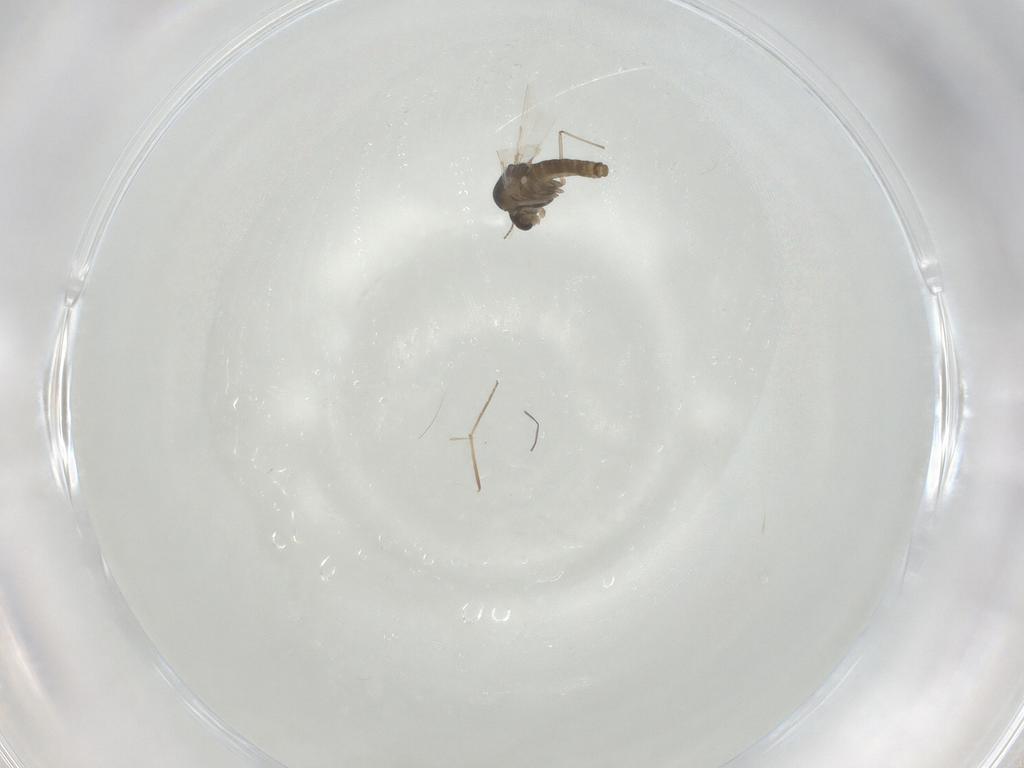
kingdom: Animalia
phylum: Arthropoda
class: Insecta
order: Diptera
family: Chironomidae
